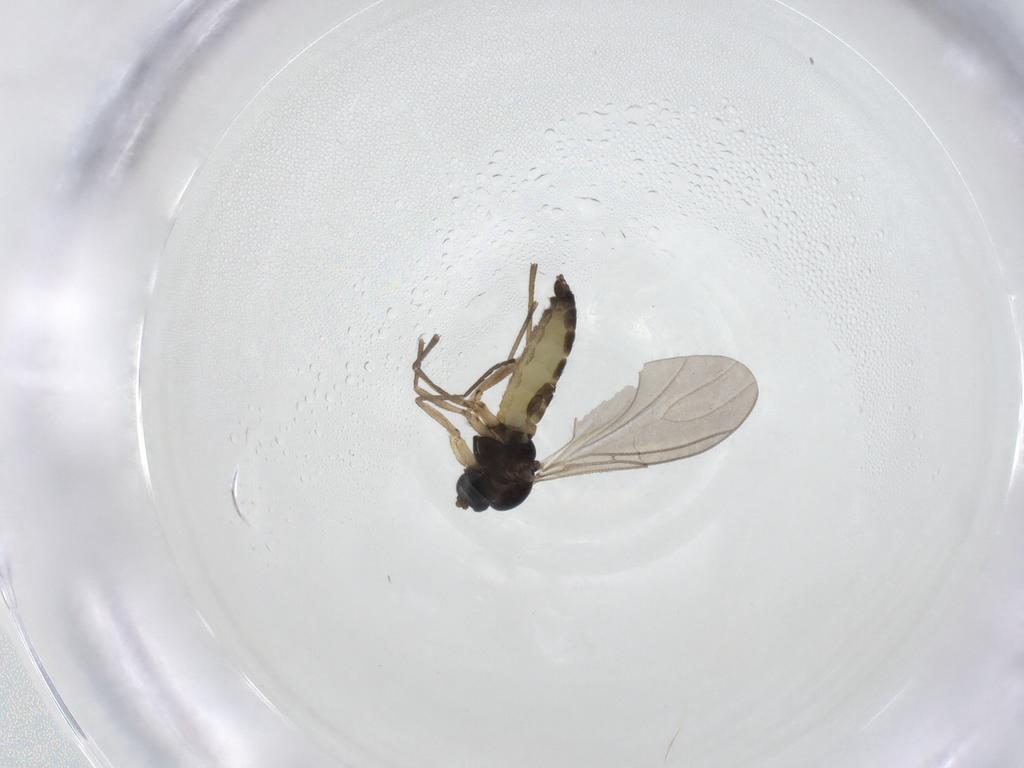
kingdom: Animalia
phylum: Arthropoda
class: Insecta
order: Diptera
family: Sciaridae
